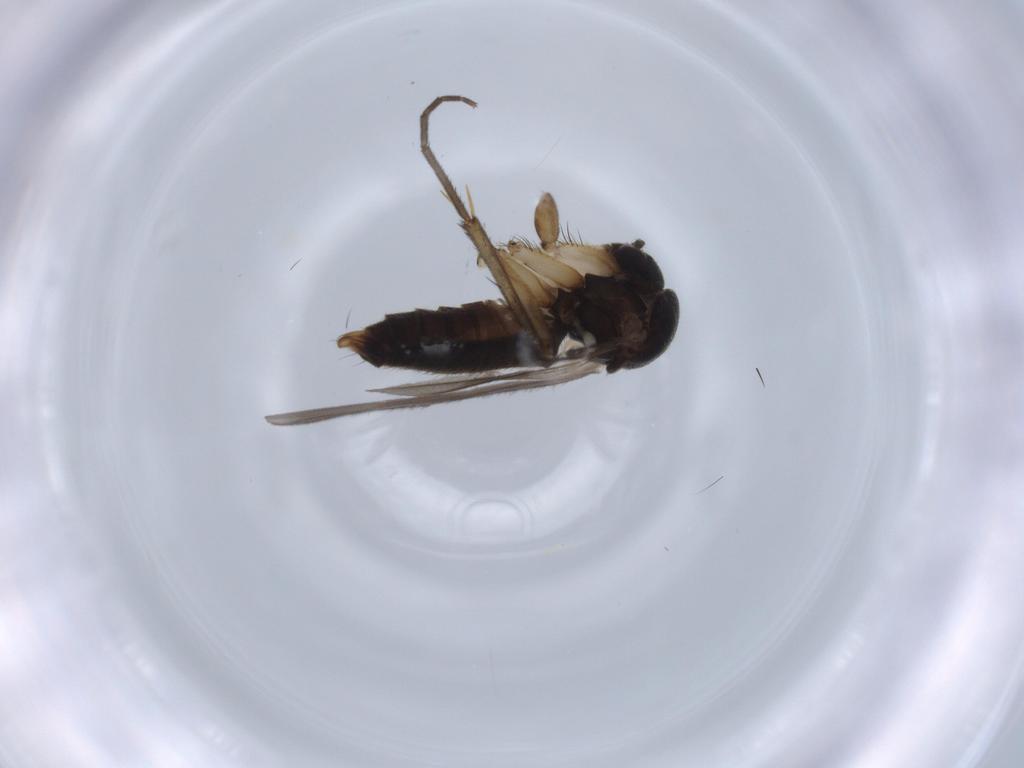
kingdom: Animalia
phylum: Arthropoda
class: Insecta
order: Diptera
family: Mycetophilidae
